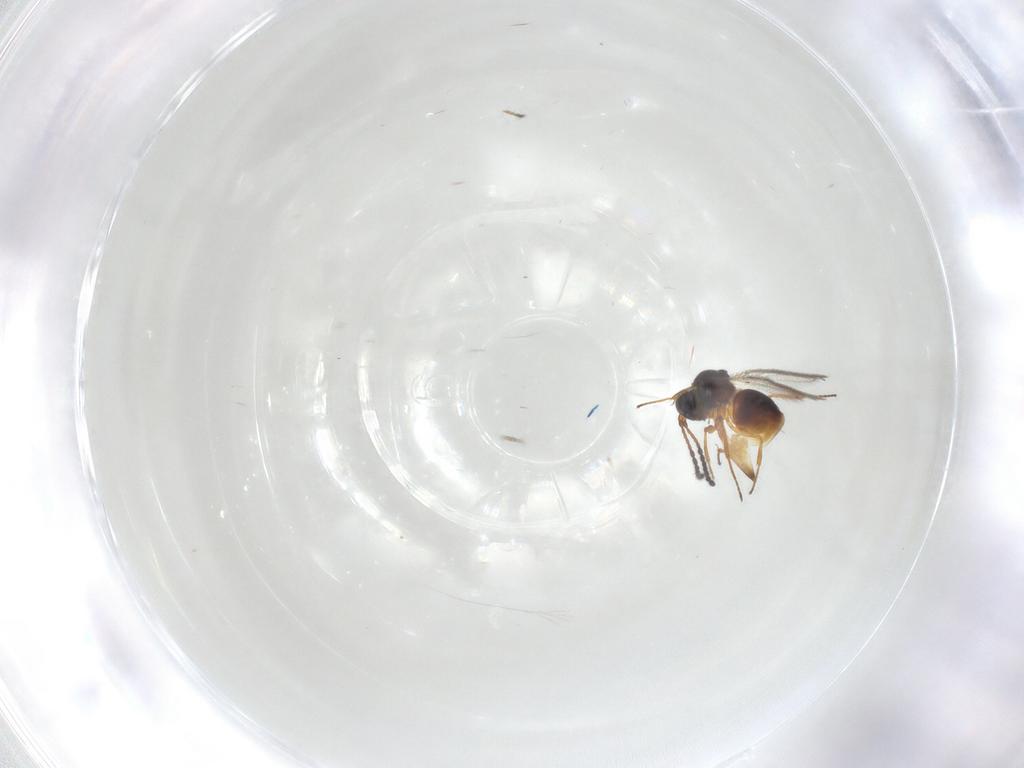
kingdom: Animalia
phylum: Arthropoda
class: Insecta
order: Hymenoptera
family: Figitidae
